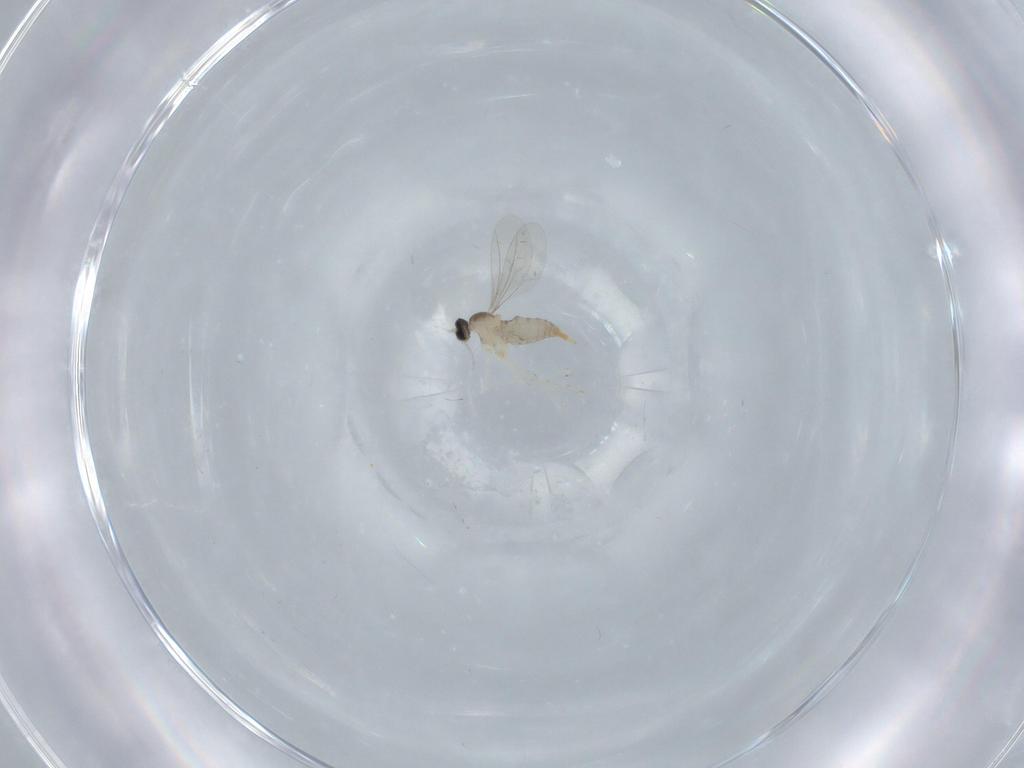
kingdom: Animalia
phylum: Arthropoda
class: Insecta
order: Diptera
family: Cecidomyiidae
